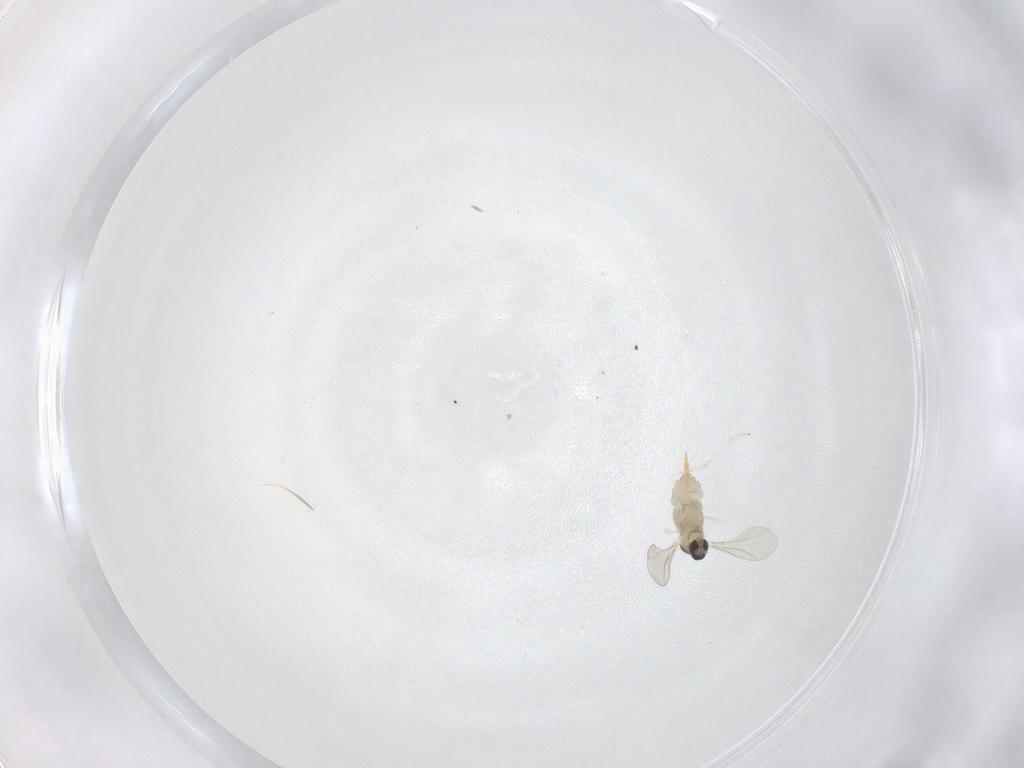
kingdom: Animalia
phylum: Arthropoda
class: Insecta
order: Diptera
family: Cecidomyiidae
